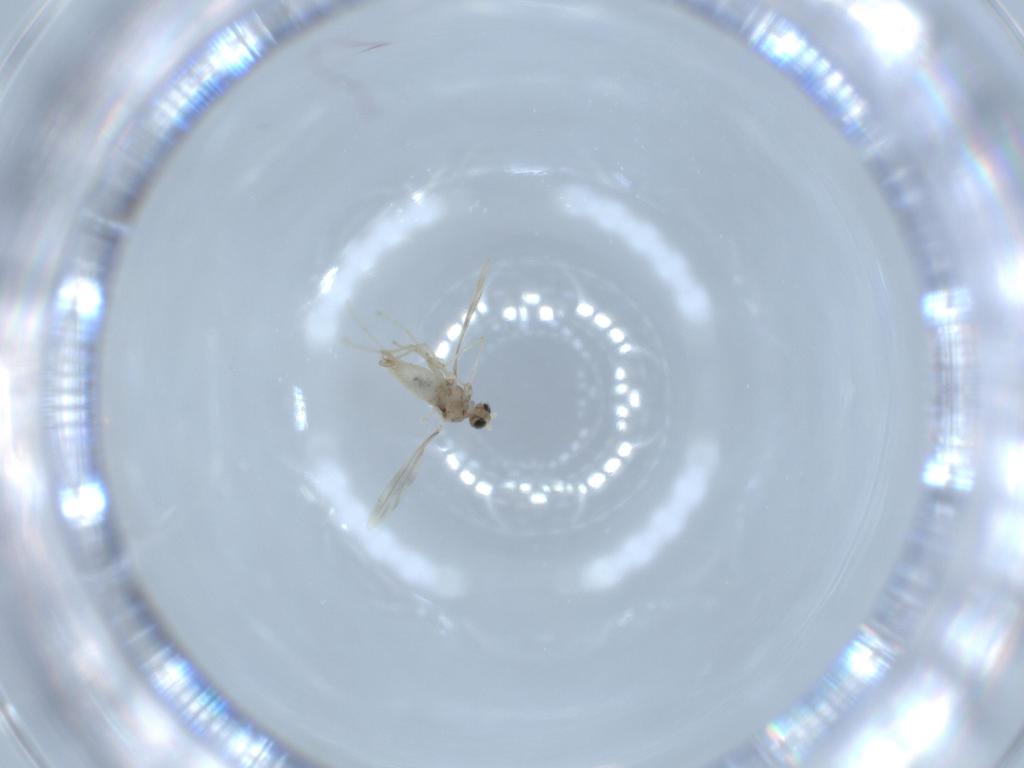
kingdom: Animalia
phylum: Arthropoda
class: Insecta
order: Diptera
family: Cecidomyiidae
